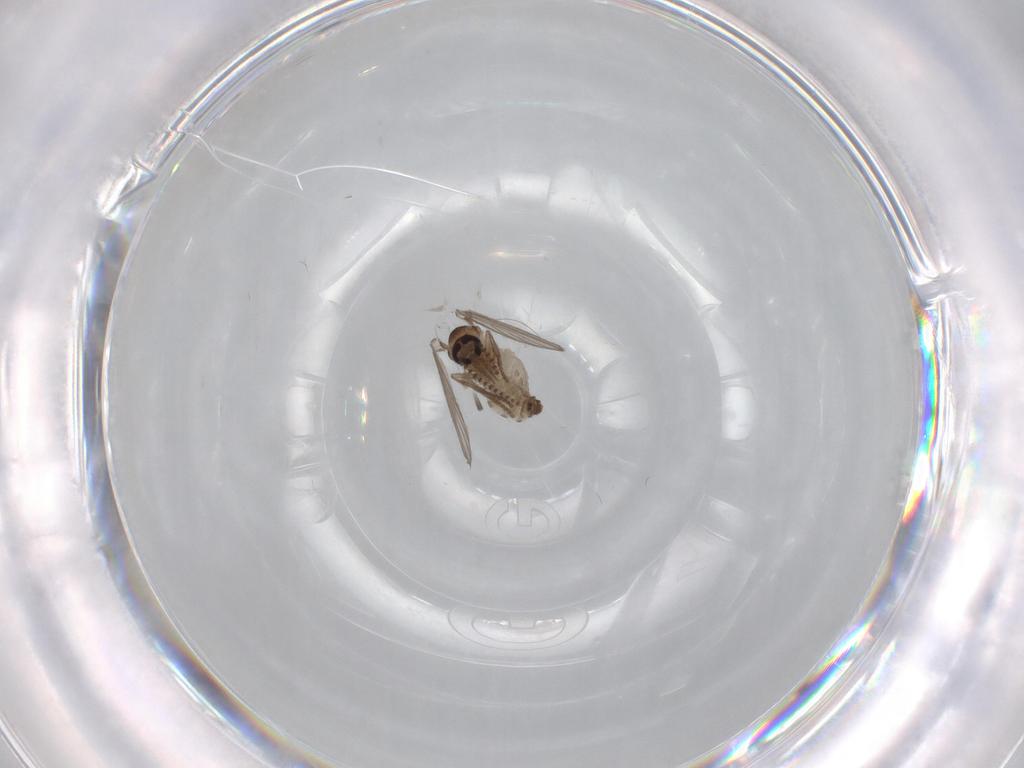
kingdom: Animalia
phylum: Arthropoda
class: Insecta
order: Diptera
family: Psychodidae
